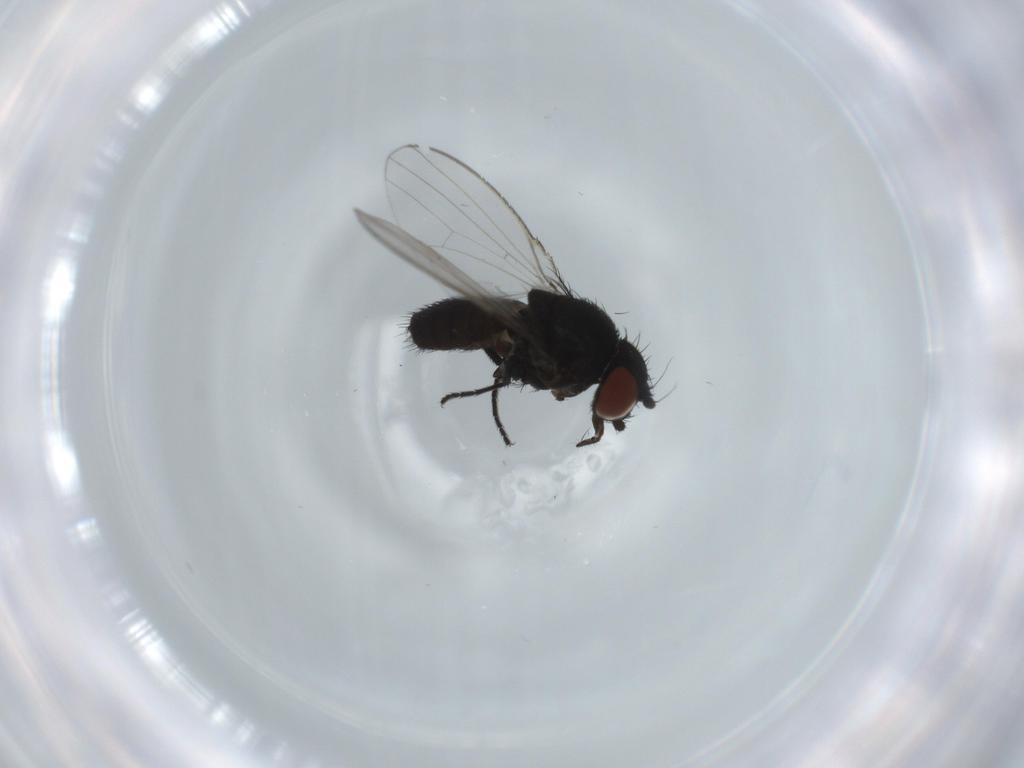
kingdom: Animalia
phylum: Arthropoda
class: Insecta
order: Diptera
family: Milichiidae
